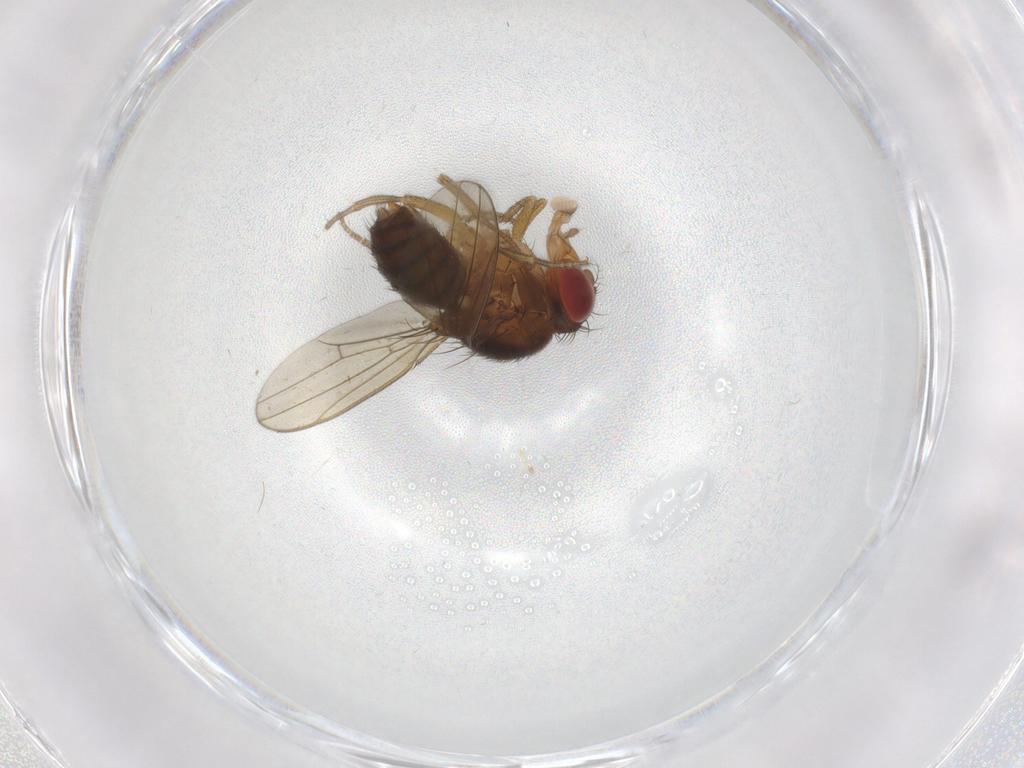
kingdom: Animalia
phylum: Arthropoda
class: Insecta
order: Diptera
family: Drosophilidae
